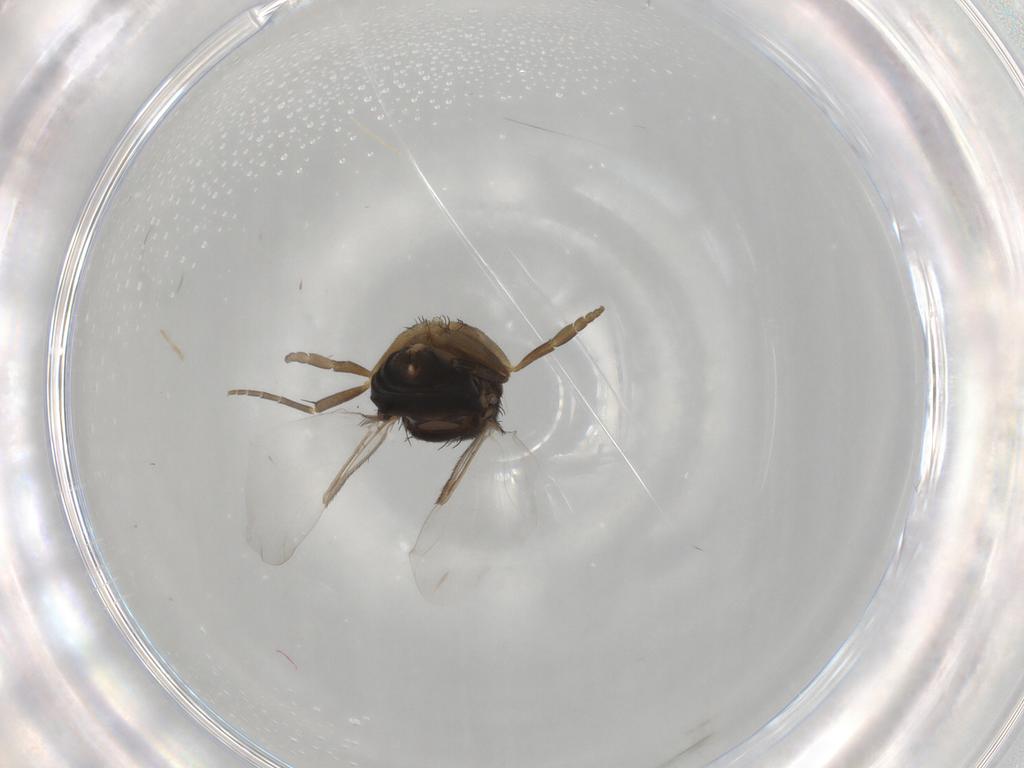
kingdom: Animalia
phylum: Arthropoda
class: Insecta
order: Diptera
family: Phoridae
